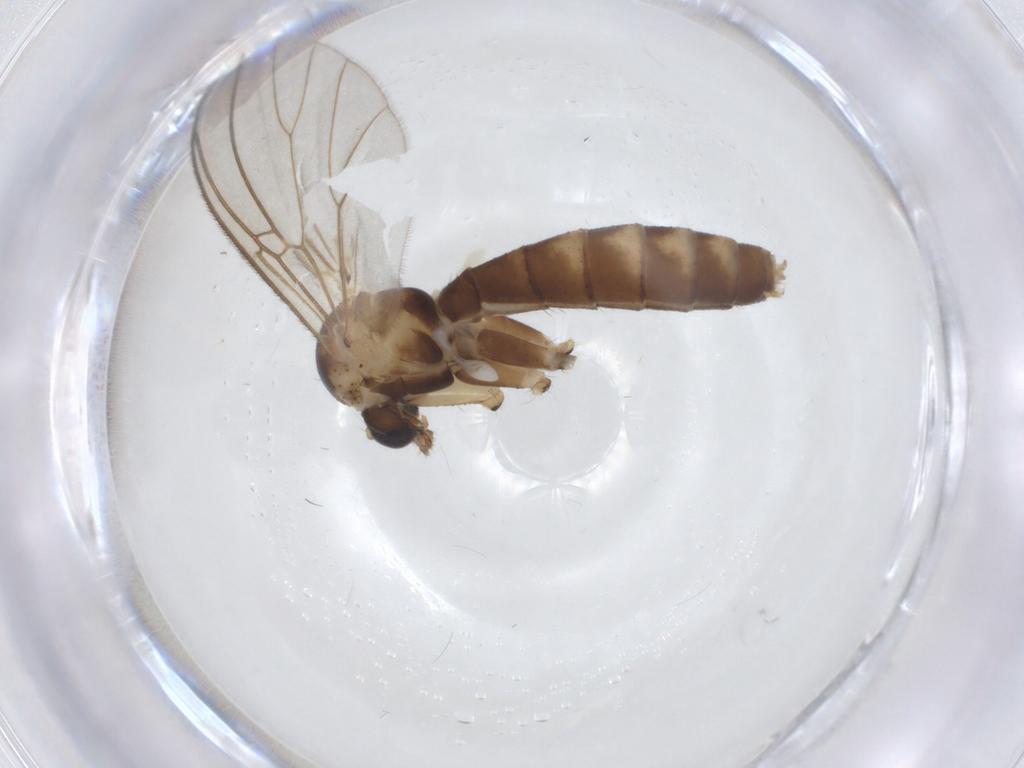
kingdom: Animalia
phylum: Arthropoda
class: Insecta
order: Diptera
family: Mycetophilidae
